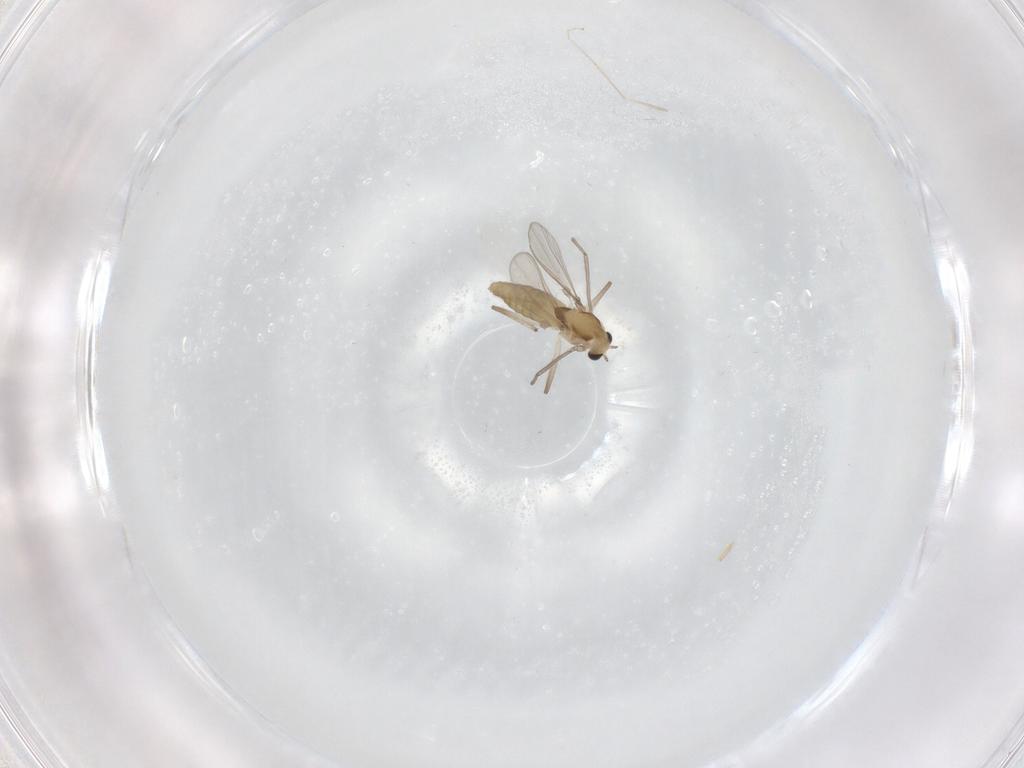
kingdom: Animalia
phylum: Arthropoda
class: Insecta
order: Diptera
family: Chironomidae
